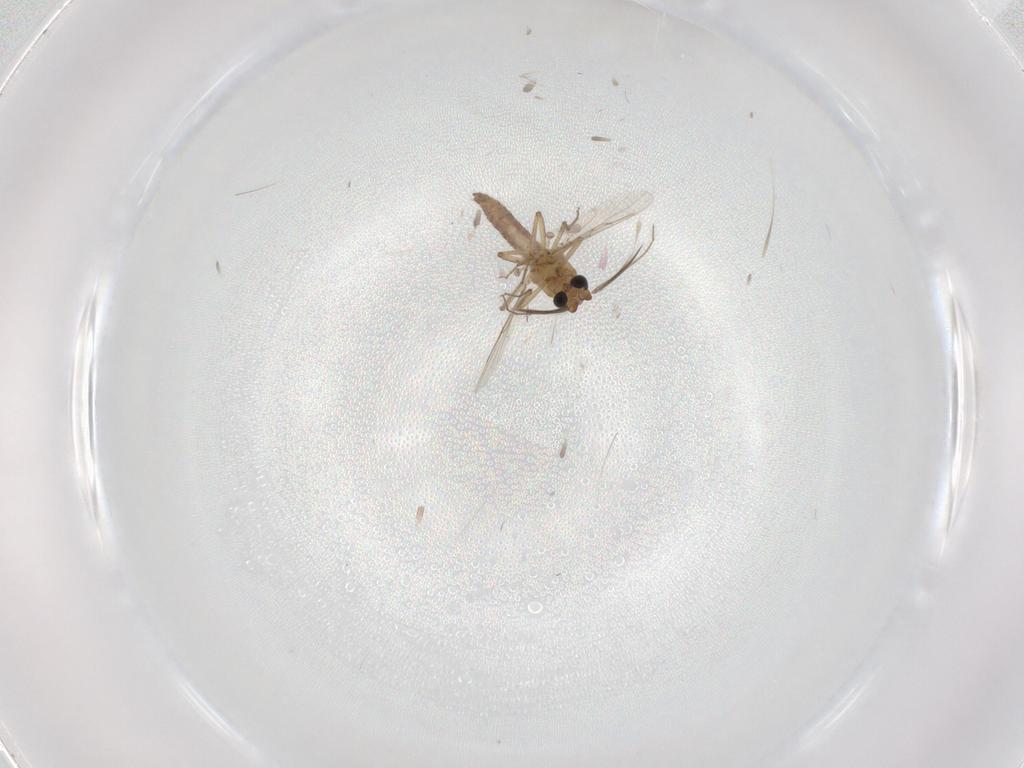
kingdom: Animalia
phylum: Arthropoda
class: Insecta
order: Diptera
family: Ceratopogonidae
